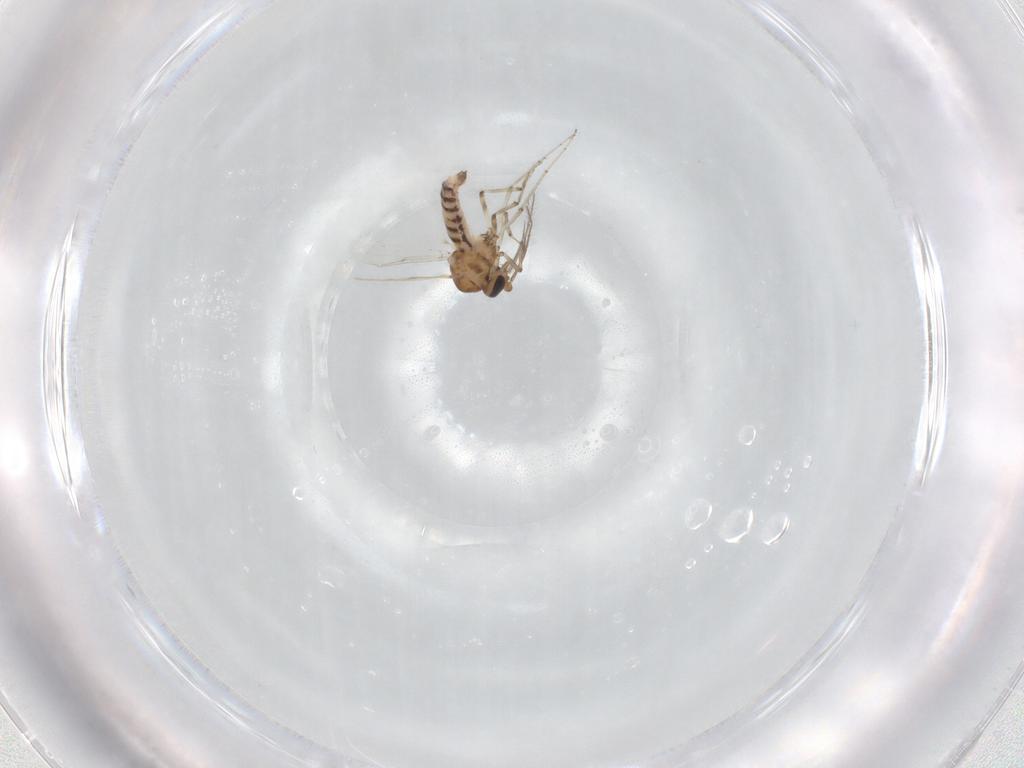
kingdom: Animalia
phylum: Arthropoda
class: Insecta
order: Diptera
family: Ceratopogonidae
